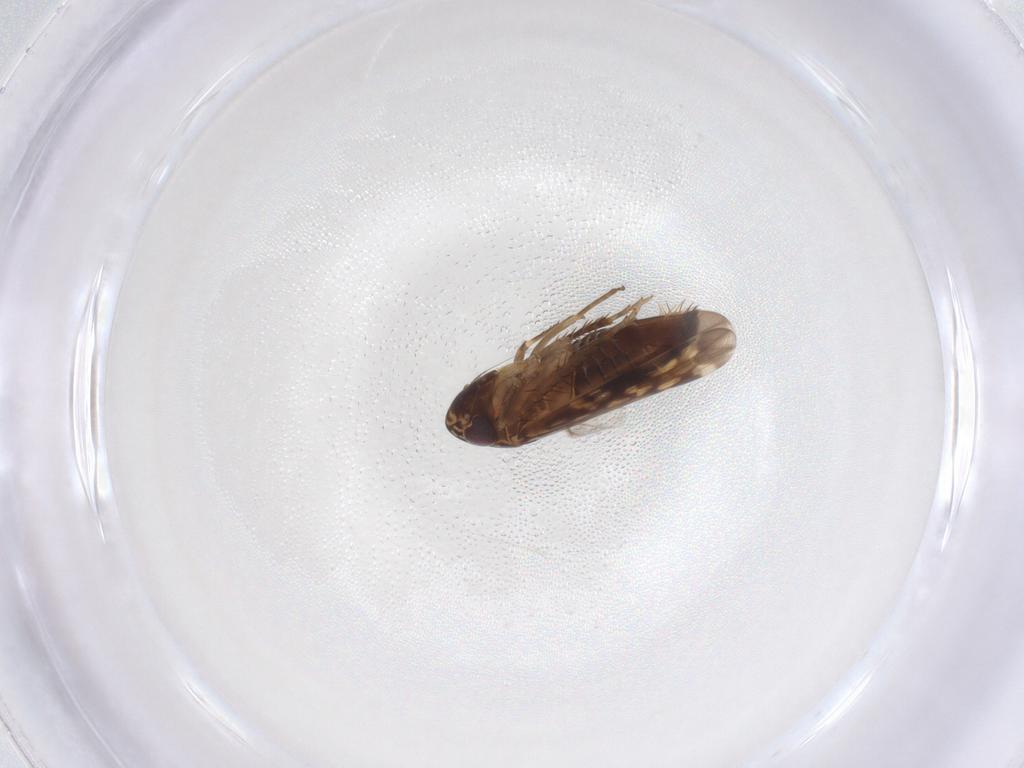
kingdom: Animalia
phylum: Arthropoda
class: Insecta
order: Hemiptera
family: Cicadellidae
